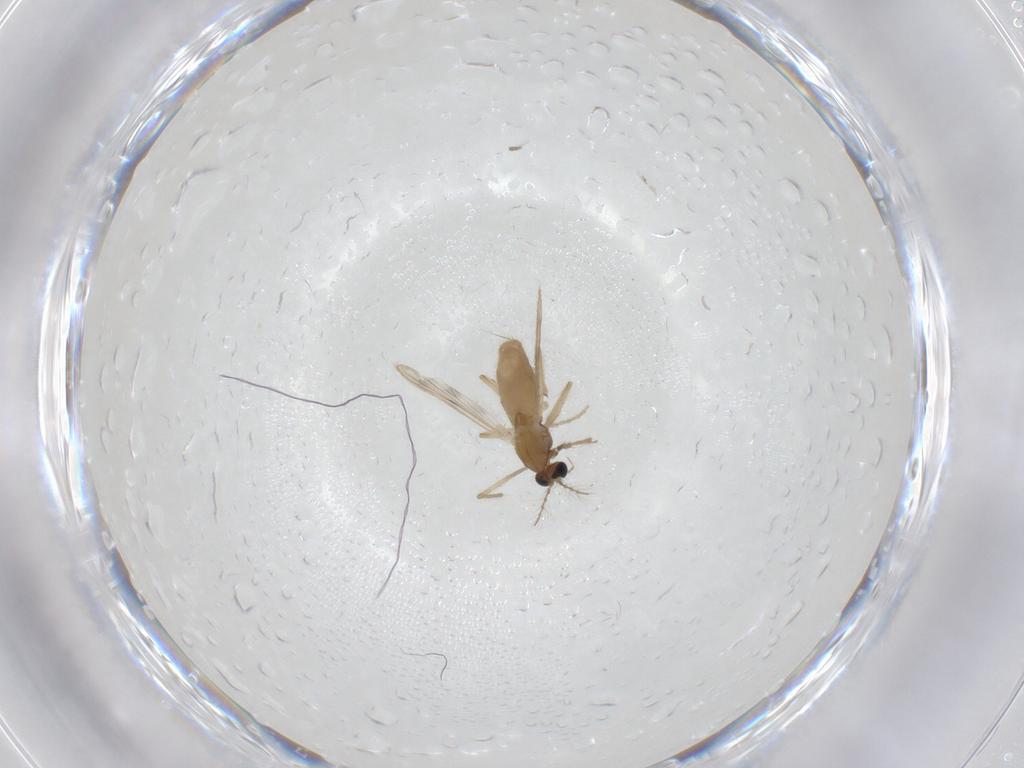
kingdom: Animalia
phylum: Arthropoda
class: Insecta
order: Diptera
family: Chironomidae
